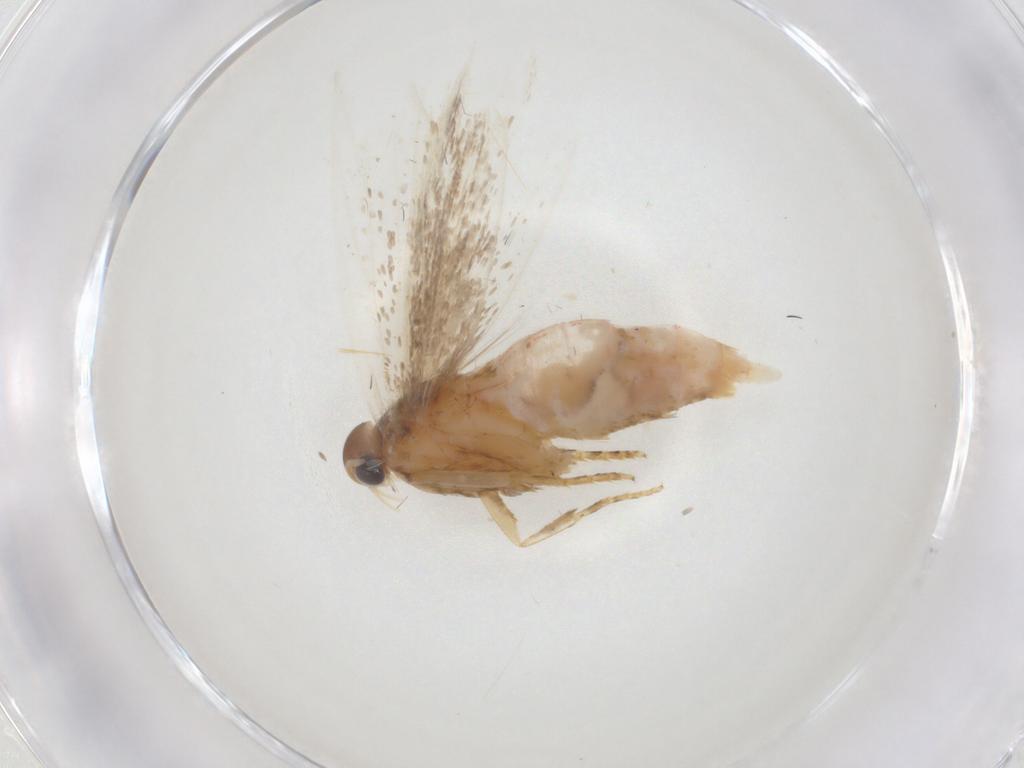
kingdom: Animalia
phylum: Arthropoda
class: Insecta
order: Lepidoptera
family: Gelechiidae
